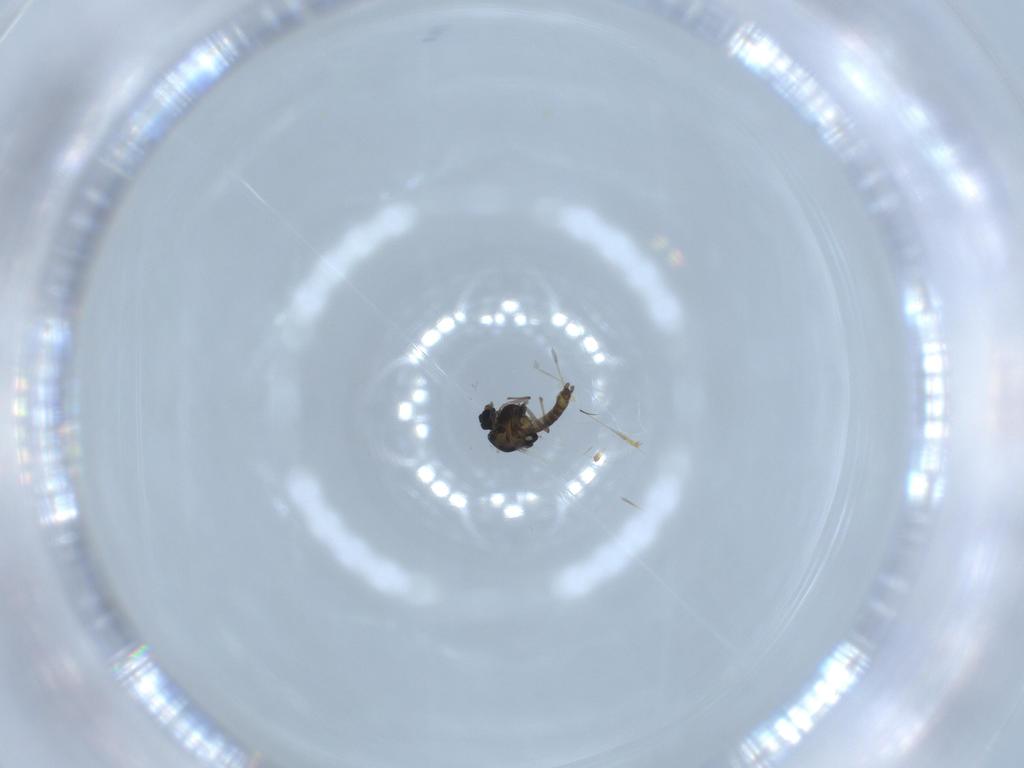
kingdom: Animalia
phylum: Arthropoda
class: Insecta
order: Diptera
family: Chironomidae
